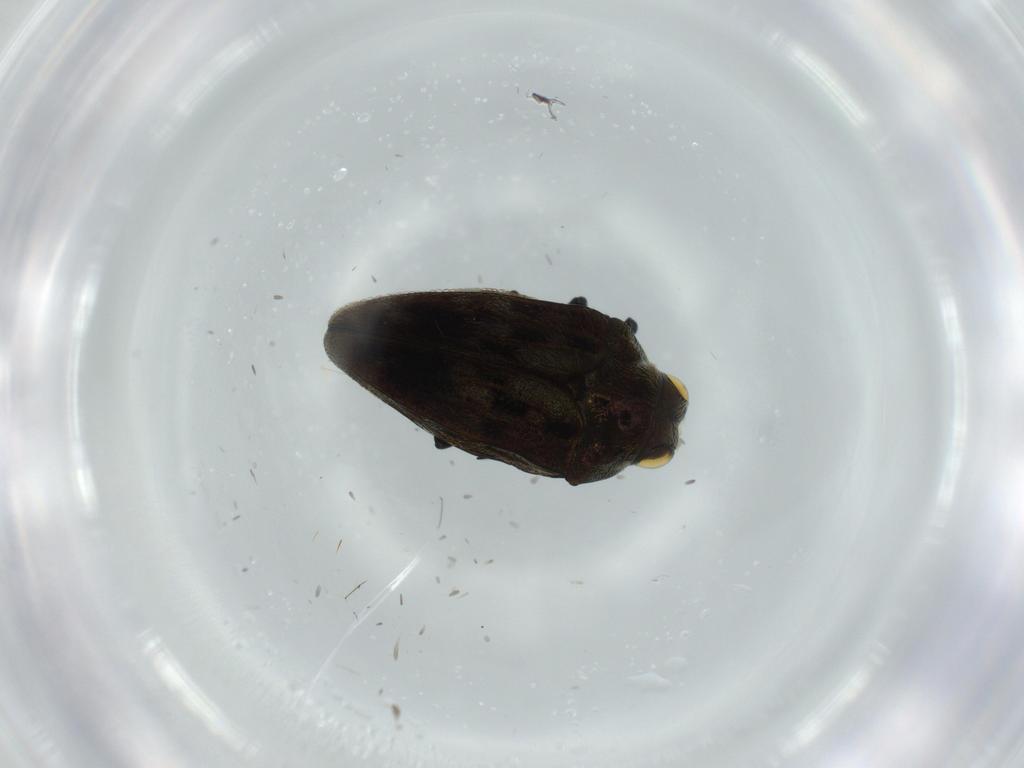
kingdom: Animalia
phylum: Arthropoda
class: Insecta
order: Coleoptera
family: Buprestidae
